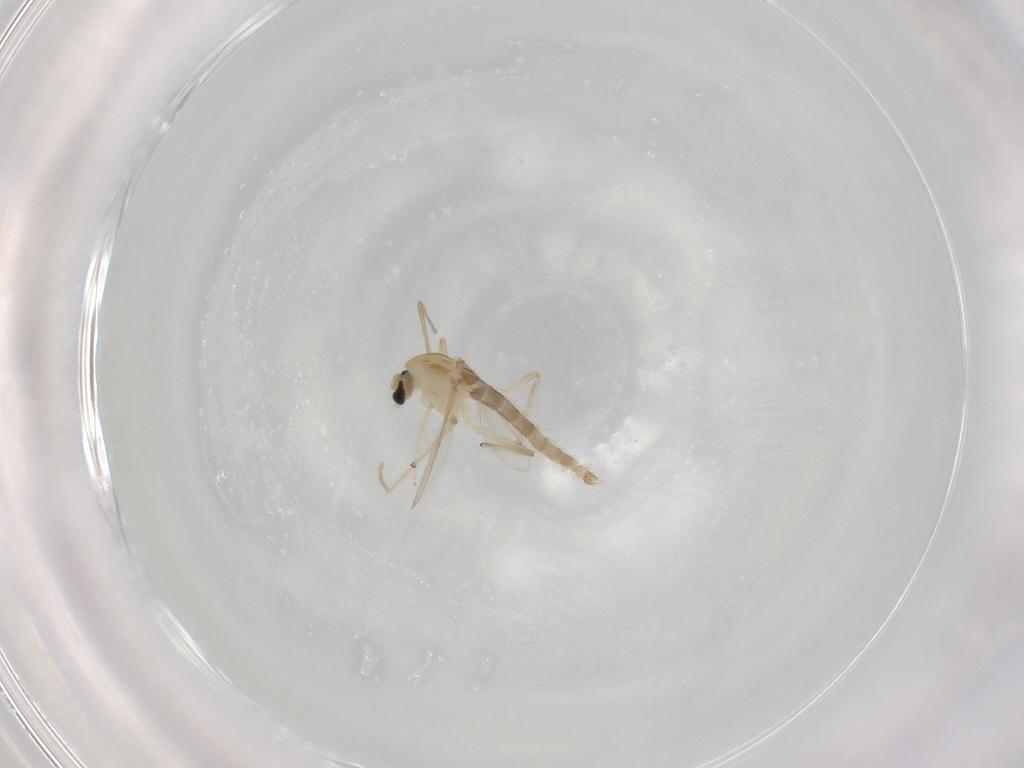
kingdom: Animalia
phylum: Arthropoda
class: Insecta
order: Diptera
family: Chironomidae
